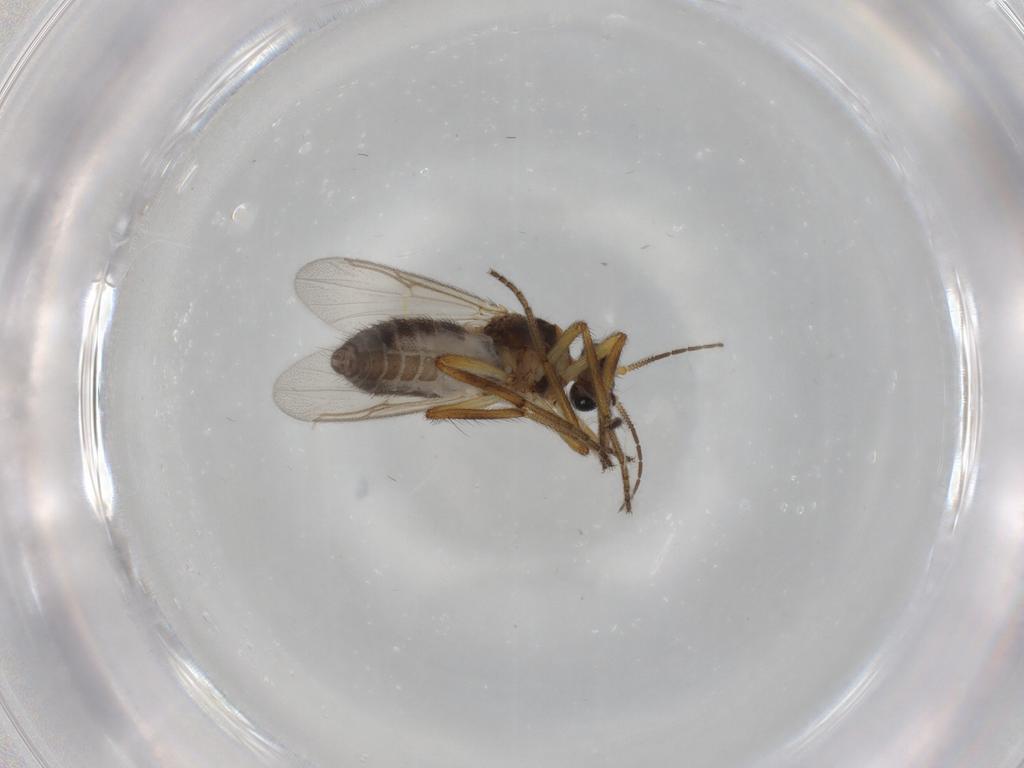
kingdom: Animalia
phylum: Arthropoda
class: Insecta
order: Diptera
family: Ceratopogonidae
